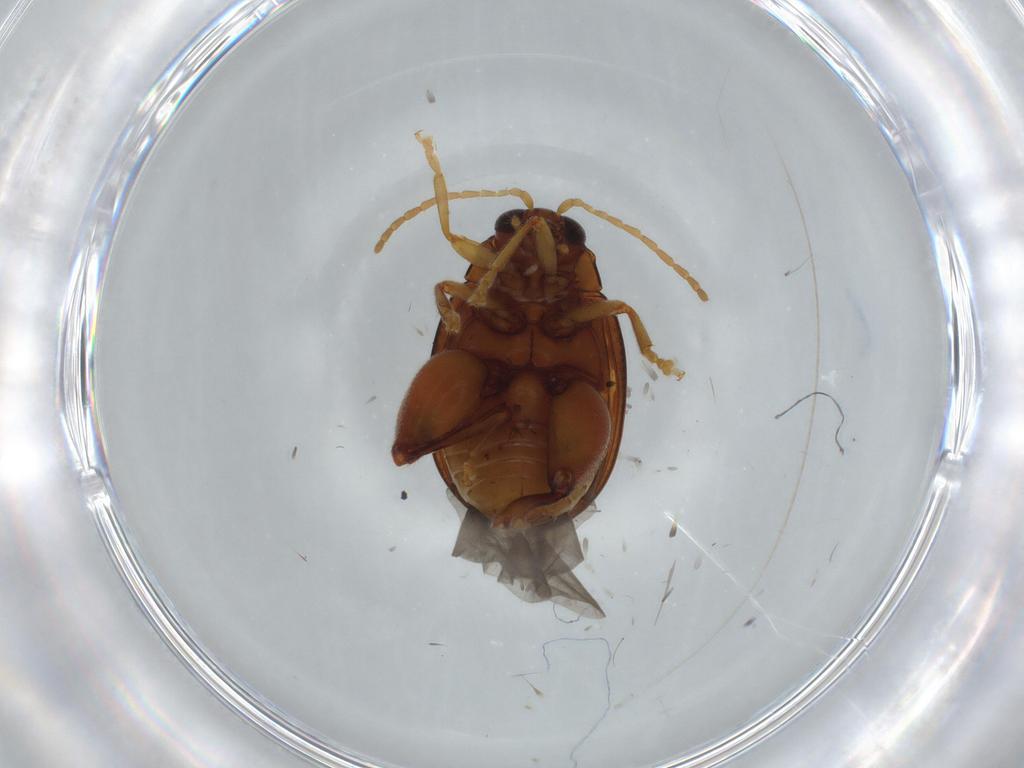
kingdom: Animalia
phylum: Arthropoda
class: Insecta
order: Coleoptera
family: Chrysomelidae
